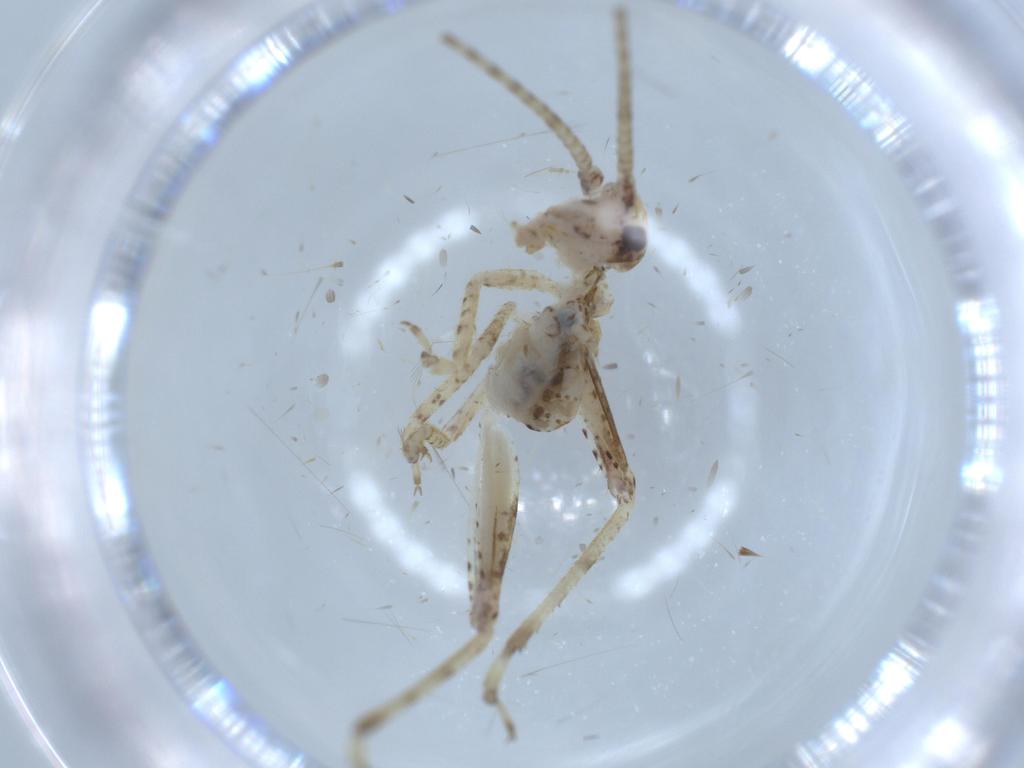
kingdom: Animalia
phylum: Arthropoda
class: Insecta
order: Orthoptera
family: Gryllidae
